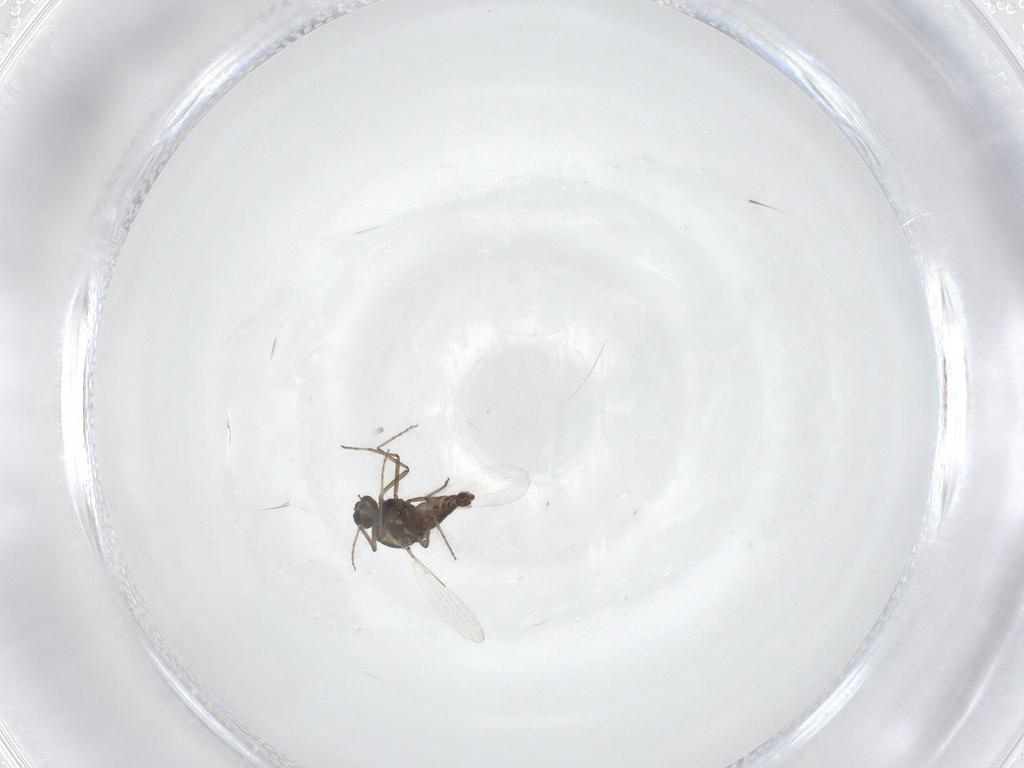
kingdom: Animalia
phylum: Arthropoda
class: Insecta
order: Diptera
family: Ceratopogonidae
